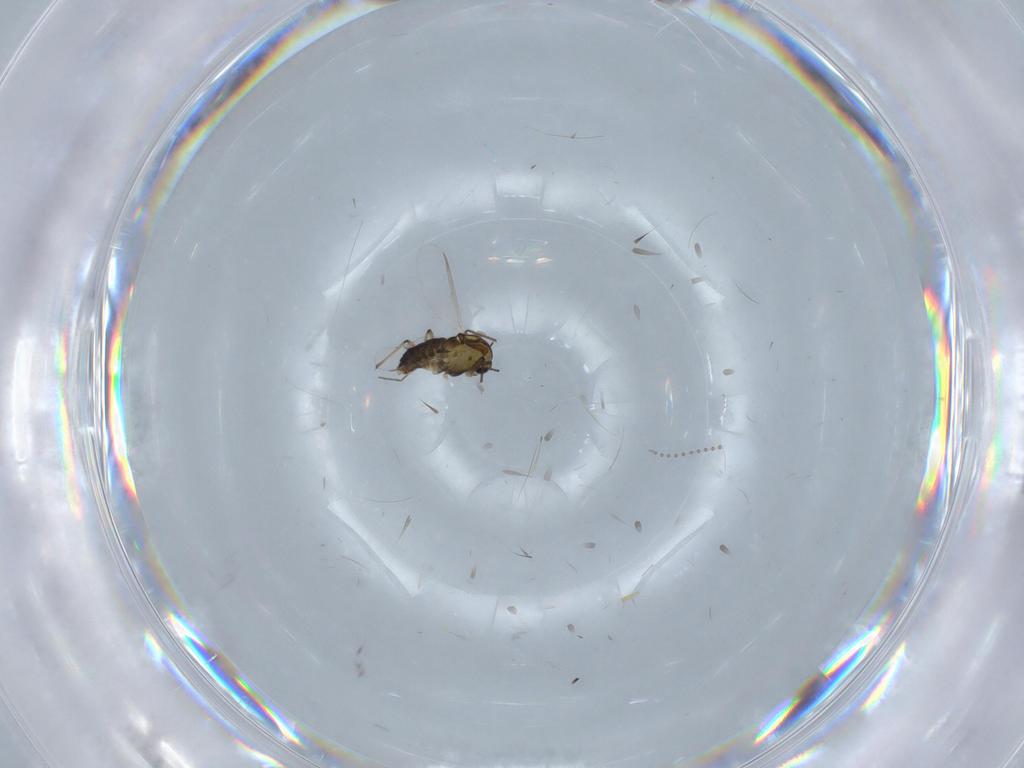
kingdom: Animalia
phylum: Arthropoda
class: Insecta
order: Diptera
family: Chironomidae
